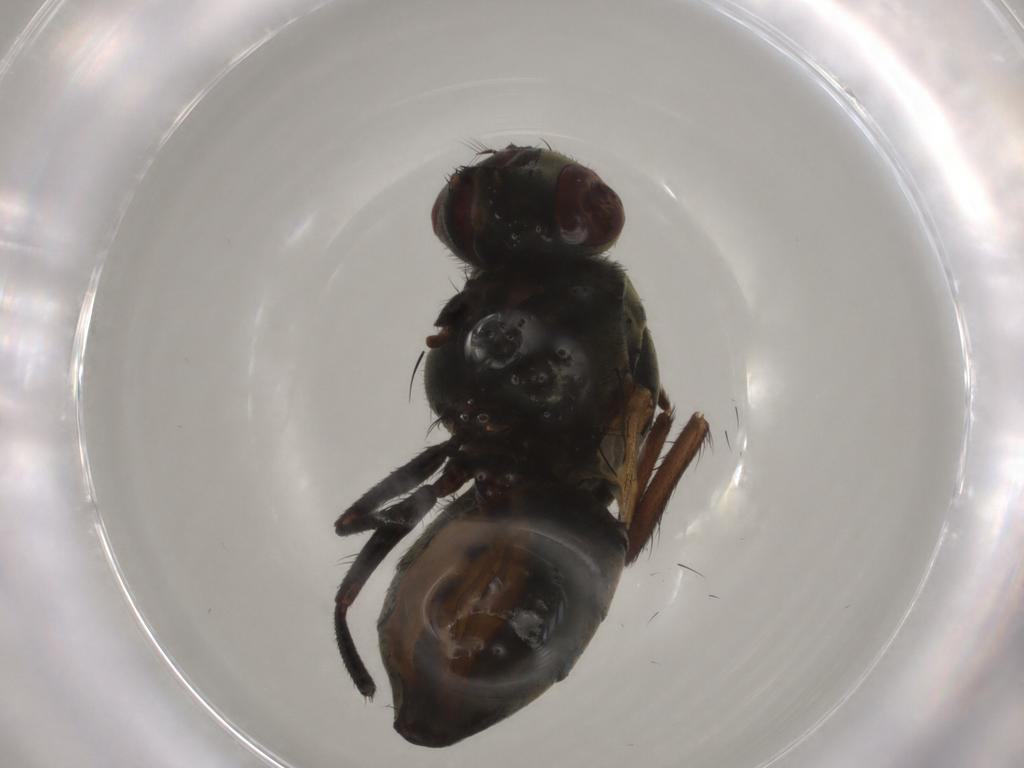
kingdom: Animalia
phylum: Arthropoda
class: Insecta
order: Diptera
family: Muscidae
